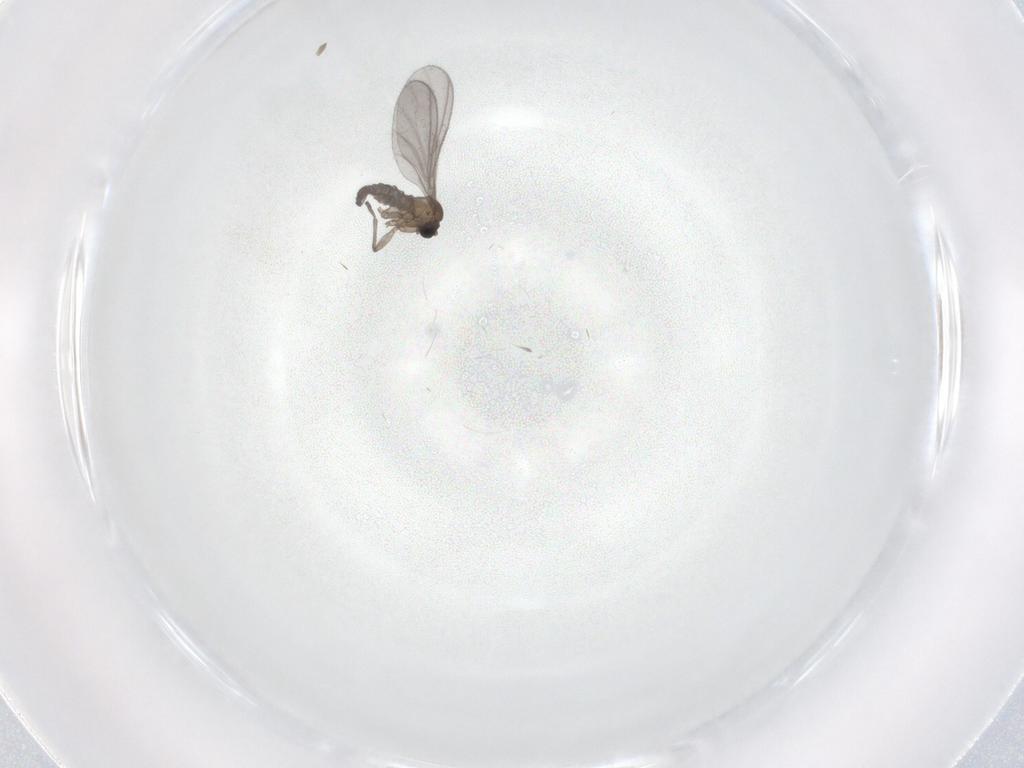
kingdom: Animalia
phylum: Arthropoda
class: Insecta
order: Diptera
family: Sciaridae
